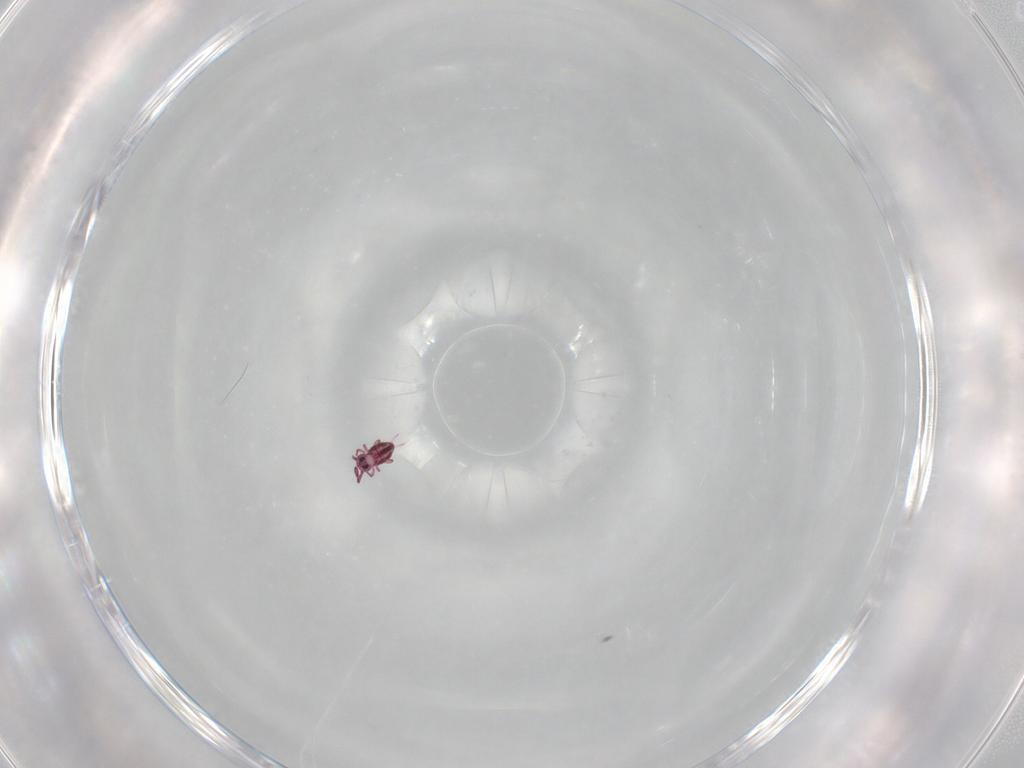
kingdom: Animalia
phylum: Arthropoda
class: Collembola
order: Symphypleona
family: Sminthurididae
